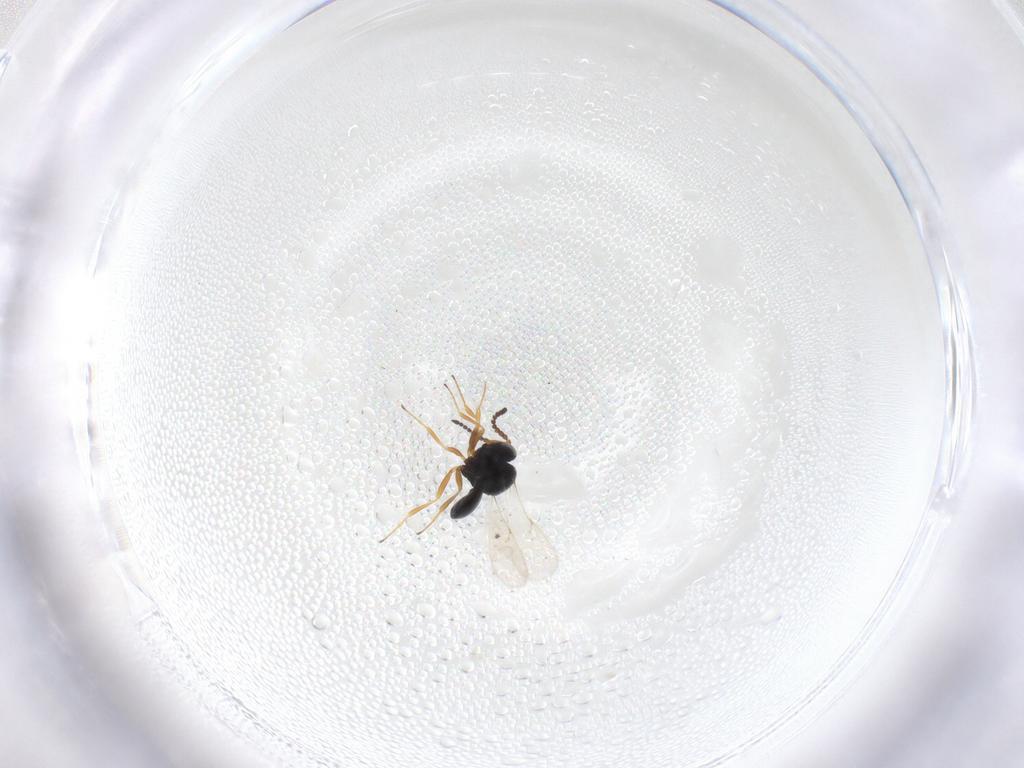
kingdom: Animalia
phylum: Arthropoda
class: Insecta
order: Hymenoptera
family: Scelionidae
